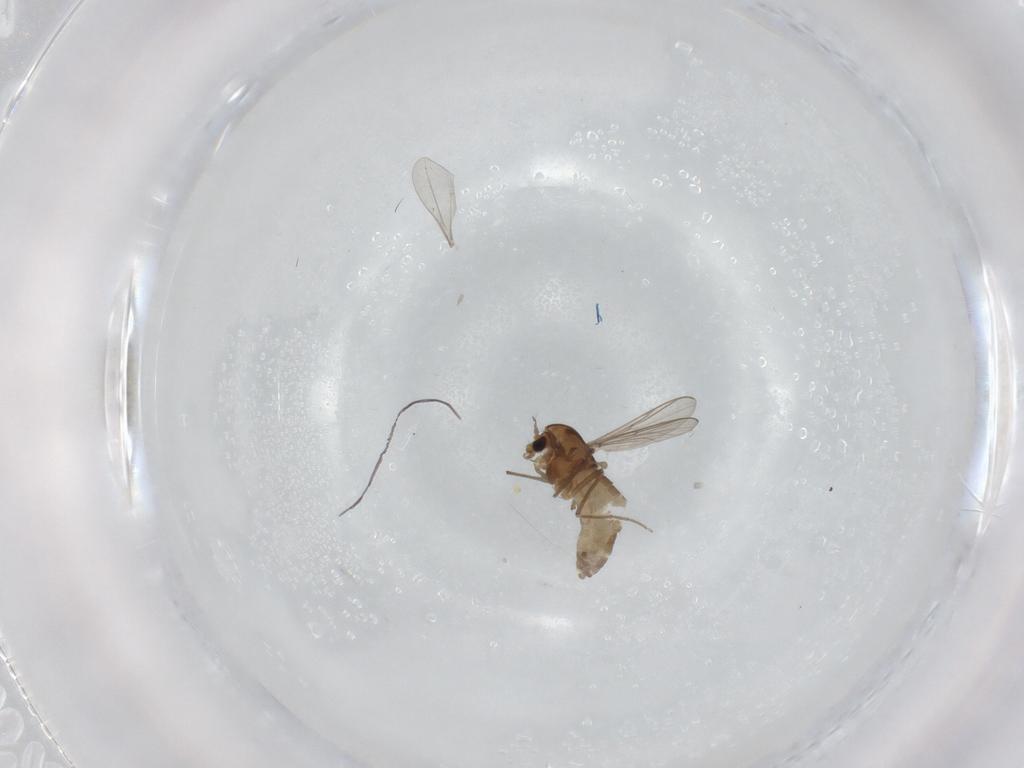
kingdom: Animalia
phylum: Arthropoda
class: Insecta
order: Diptera
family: Chironomidae
